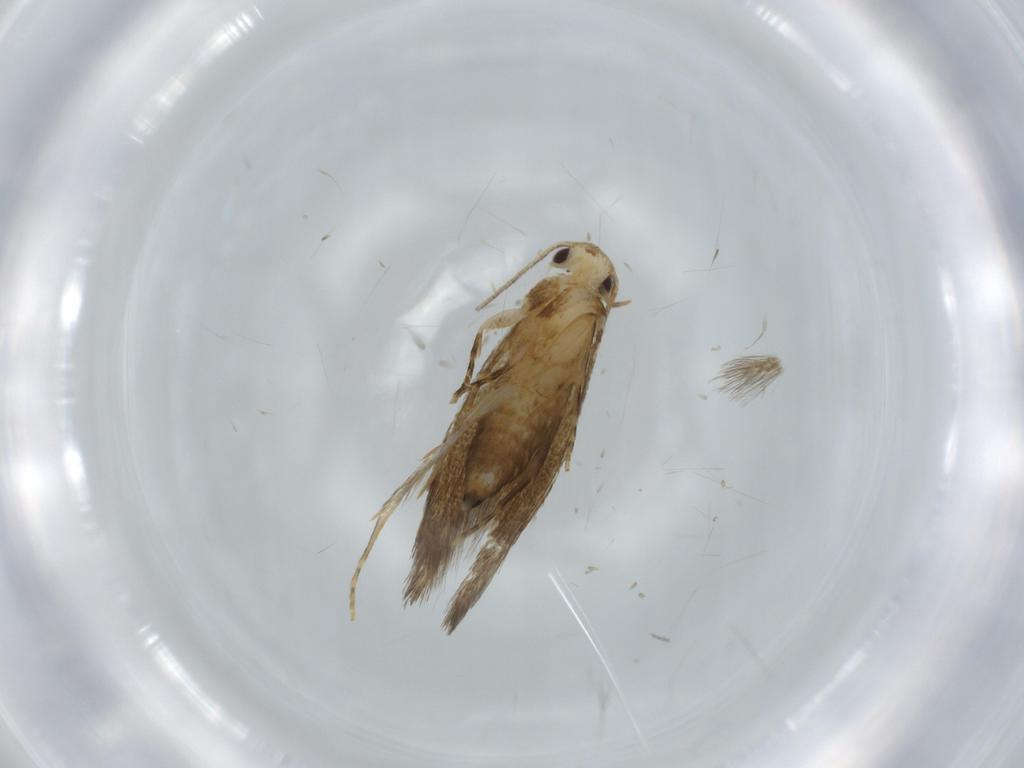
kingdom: Animalia
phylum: Arthropoda
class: Insecta
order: Lepidoptera
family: Tineidae
